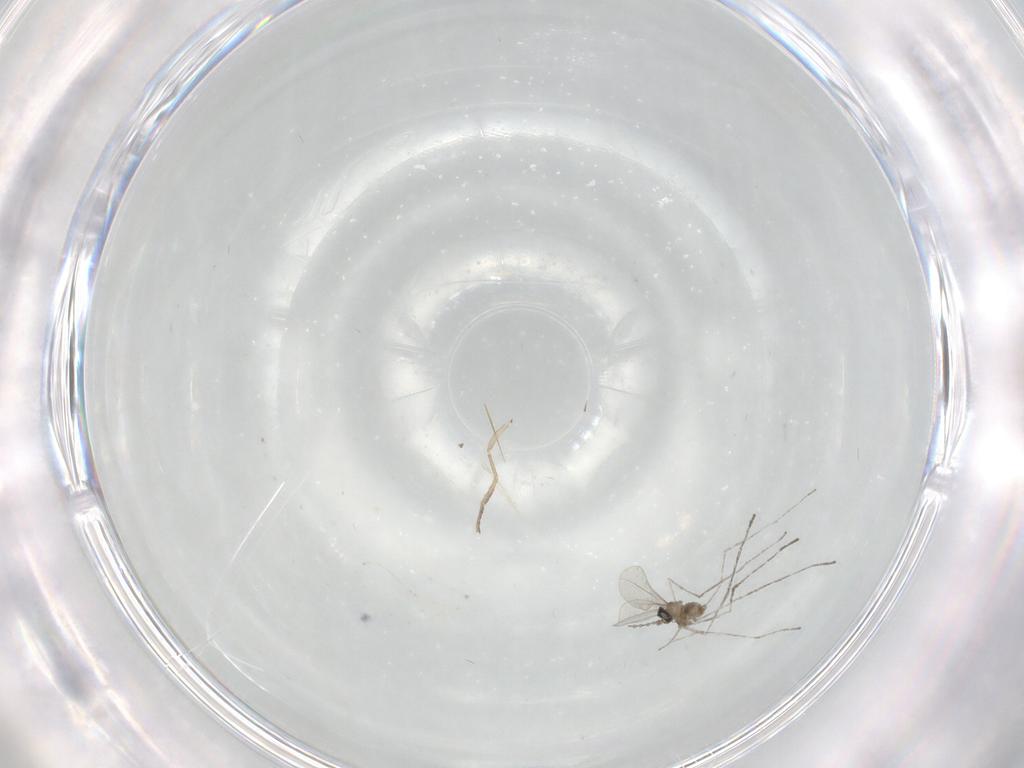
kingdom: Animalia
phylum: Arthropoda
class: Insecta
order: Diptera
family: Cecidomyiidae
